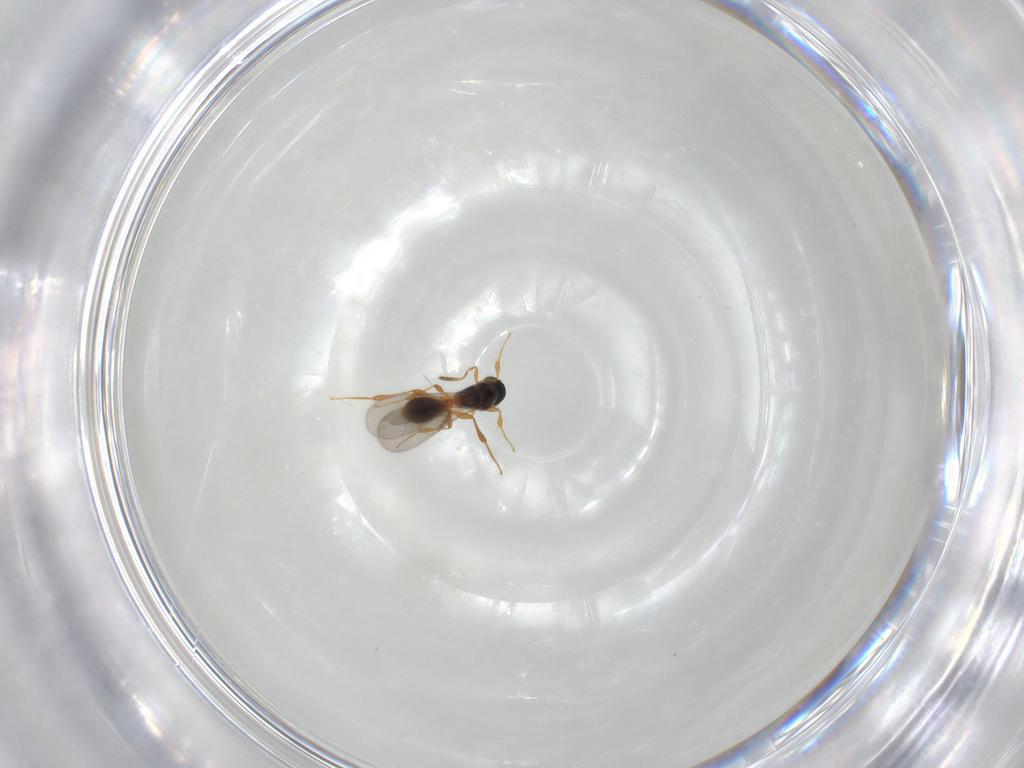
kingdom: Animalia
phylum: Arthropoda
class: Insecta
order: Hymenoptera
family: Platygastridae
